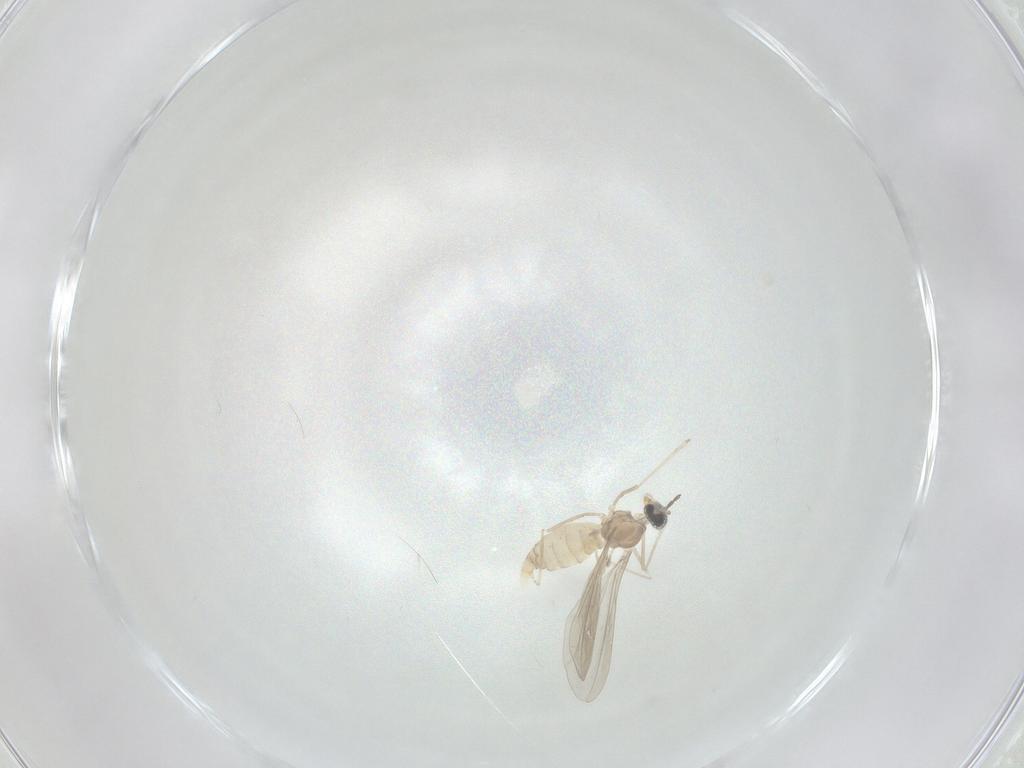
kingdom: Animalia
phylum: Arthropoda
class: Insecta
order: Diptera
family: Cecidomyiidae
